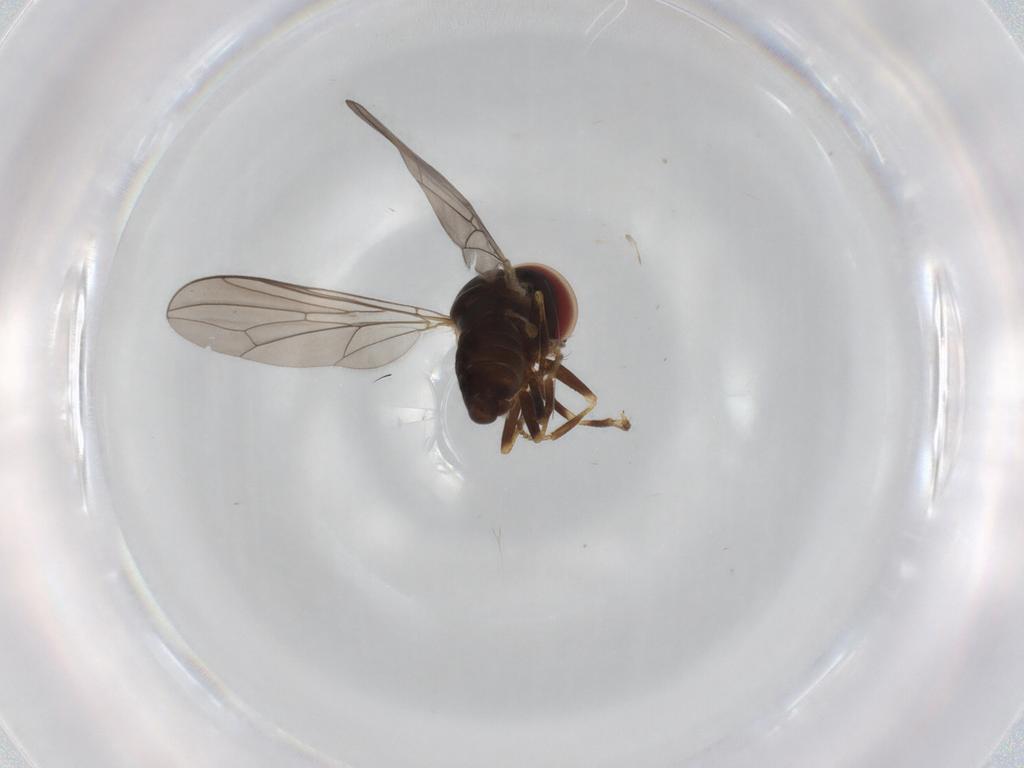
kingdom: Animalia
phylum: Arthropoda
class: Insecta
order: Diptera
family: Pipunculidae
